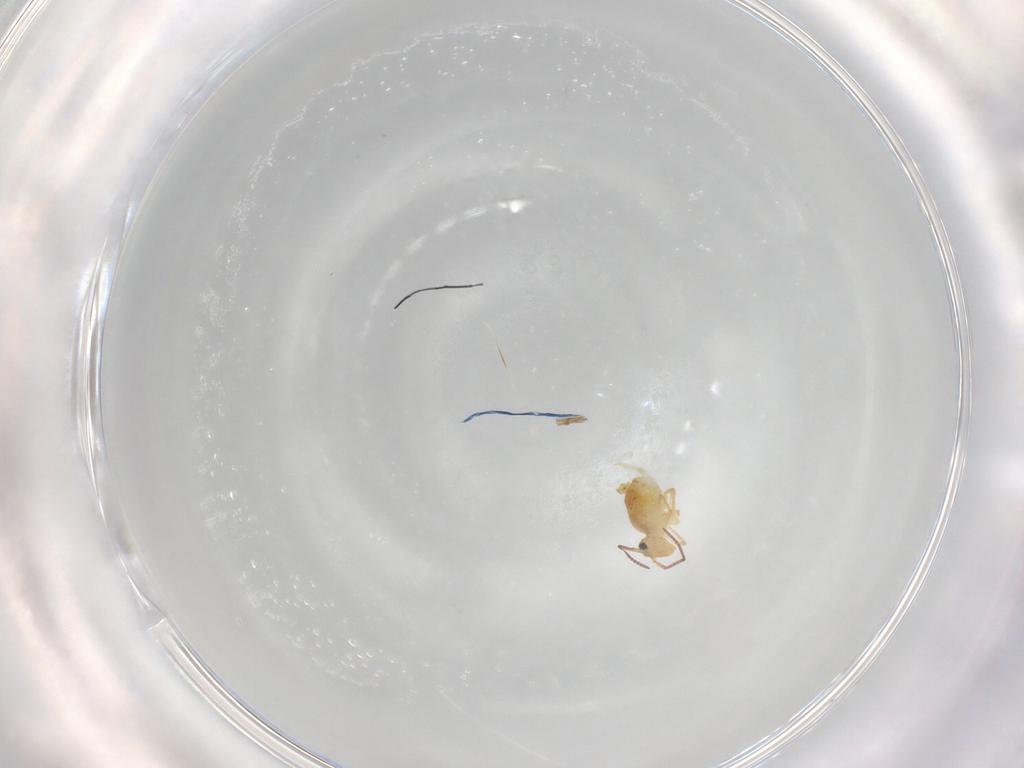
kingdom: Animalia
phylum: Arthropoda
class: Collembola
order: Symphypleona
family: Bourletiellidae
